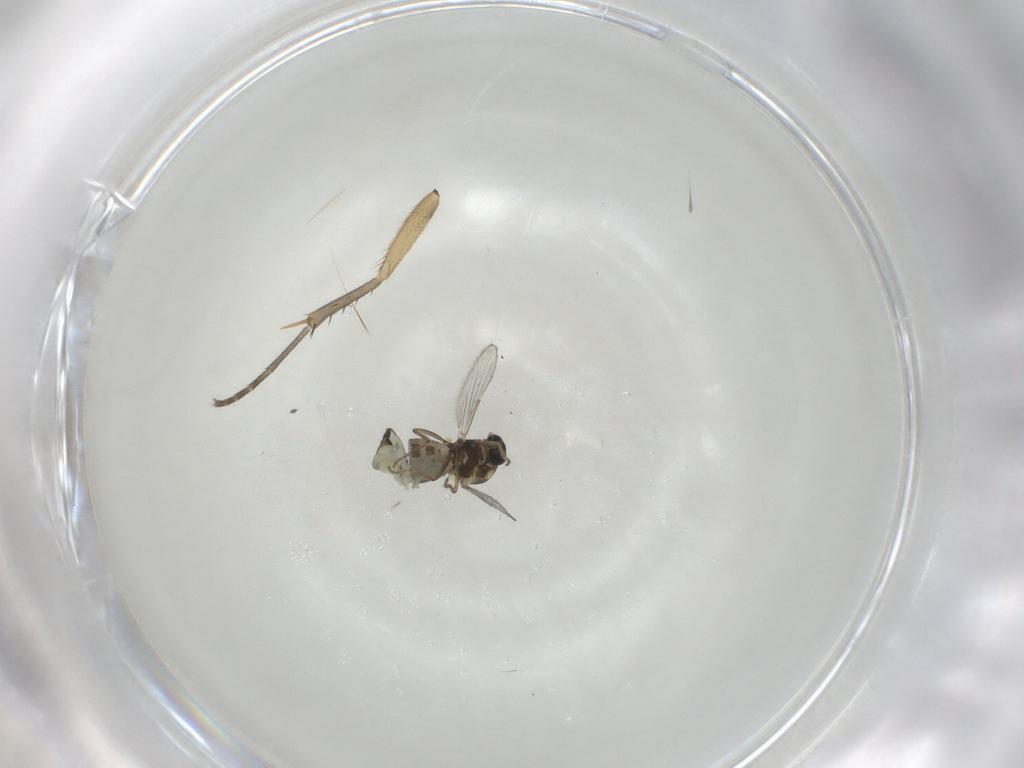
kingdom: Animalia
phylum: Arthropoda
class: Insecta
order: Diptera
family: Ceratopogonidae
